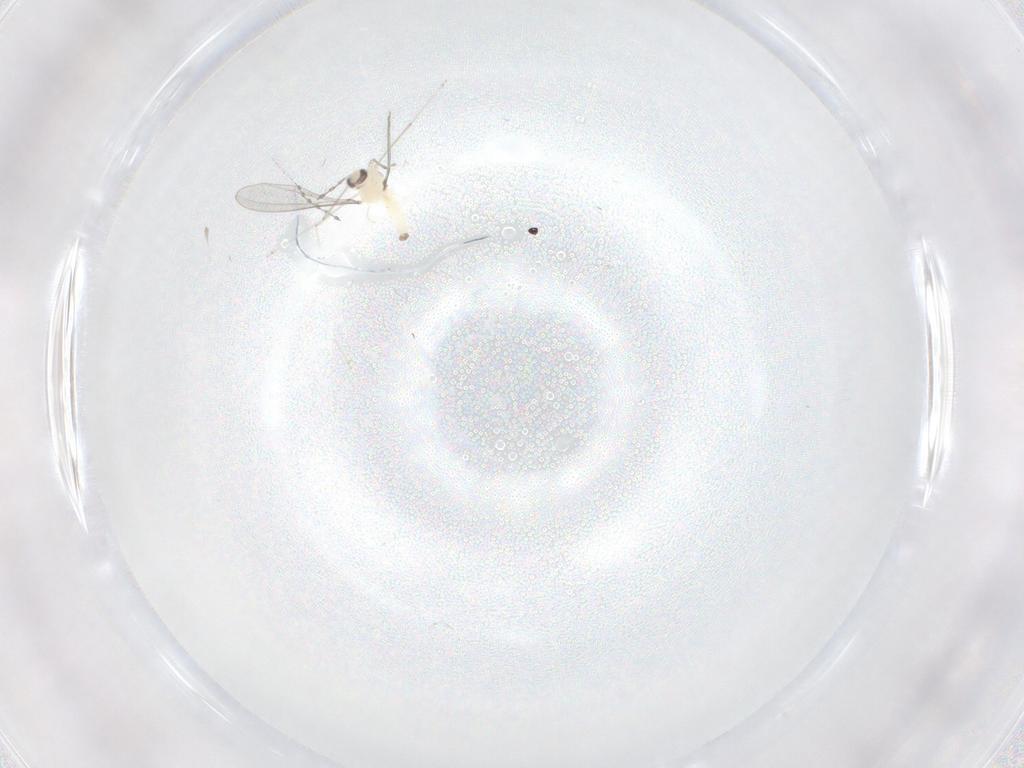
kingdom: Animalia
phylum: Arthropoda
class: Insecta
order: Diptera
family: Cecidomyiidae
